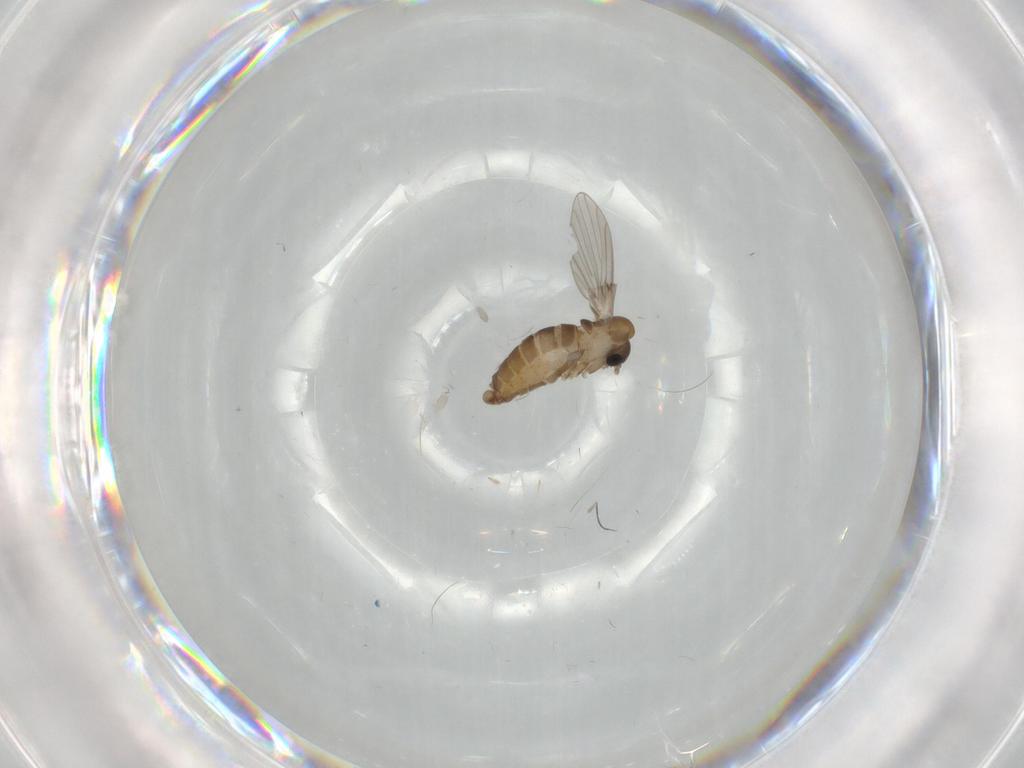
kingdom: Animalia
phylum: Arthropoda
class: Insecta
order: Diptera
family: Psychodidae
